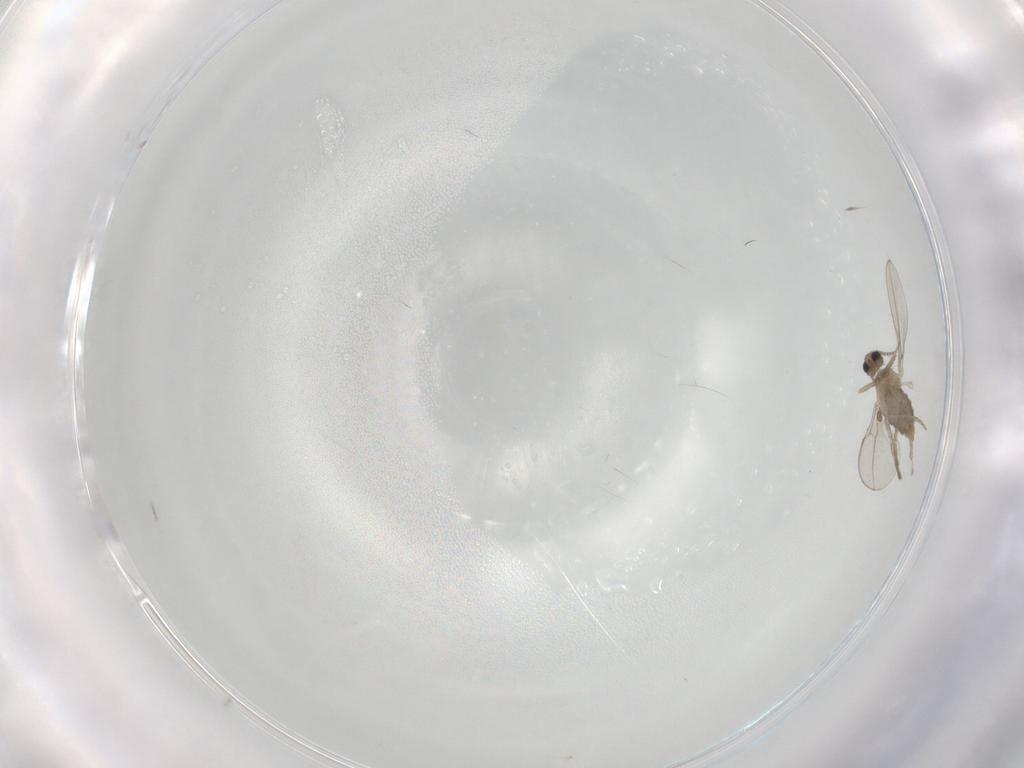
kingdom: Animalia
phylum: Arthropoda
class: Insecta
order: Diptera
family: Cecidomyiidae
